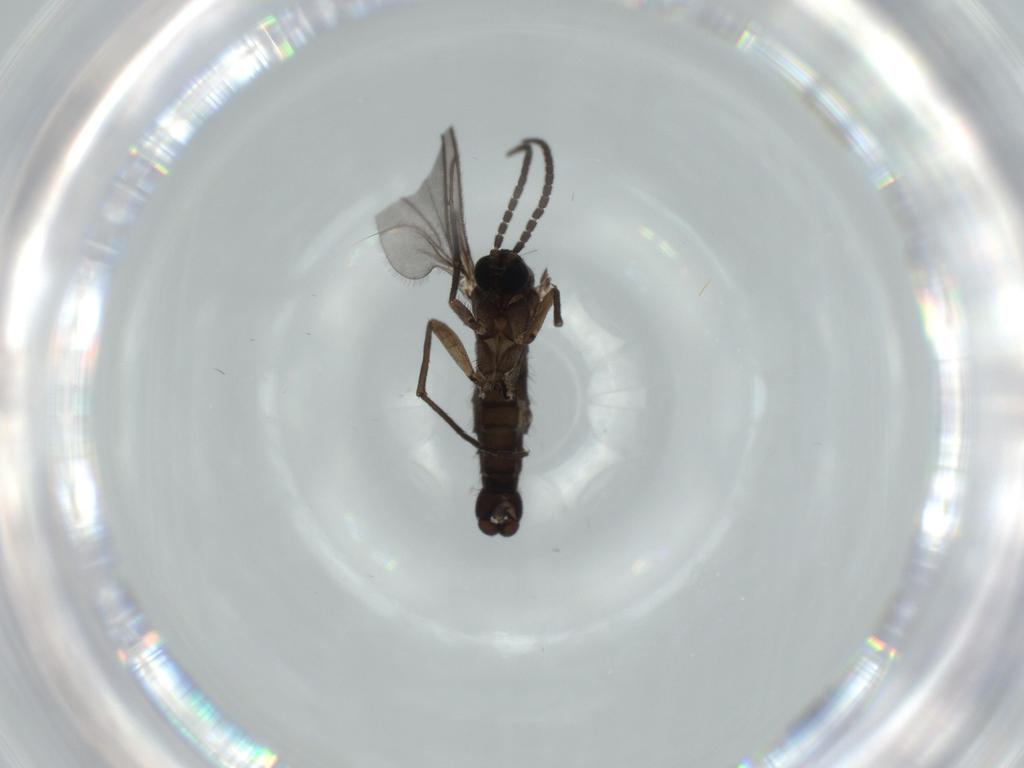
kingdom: Animalia
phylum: Arthropoda
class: Insecta
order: Diptera
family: Sciaridae
